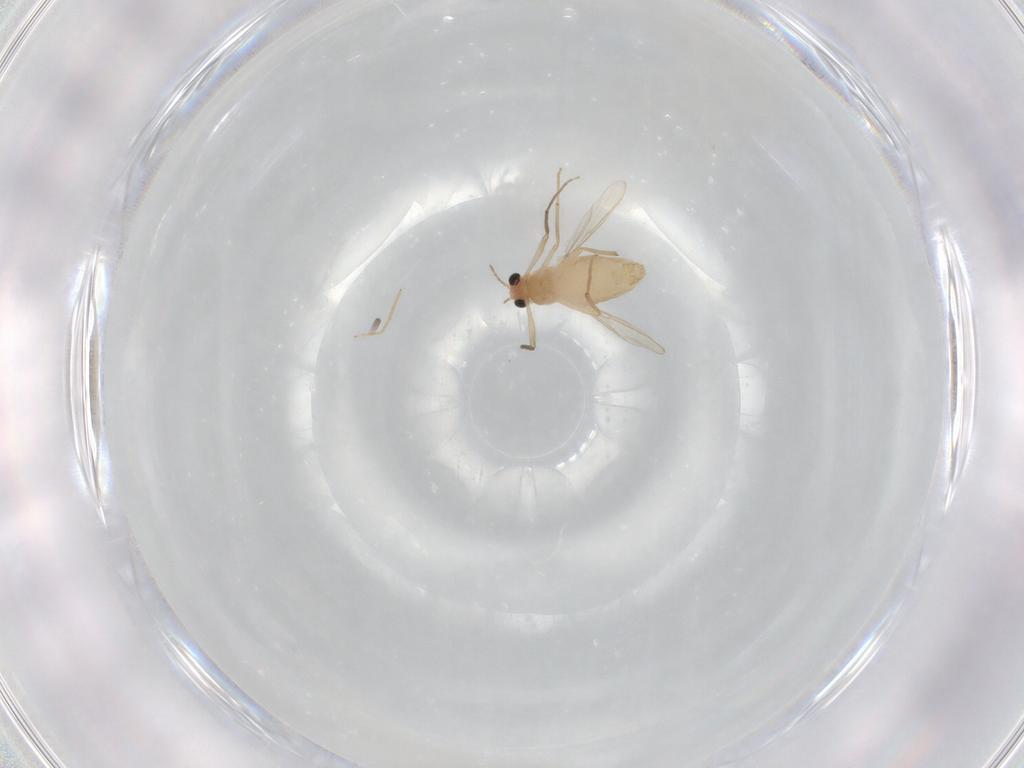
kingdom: Animalia
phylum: Arthropoda
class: Insecta
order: Diptera
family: Chironomidae
